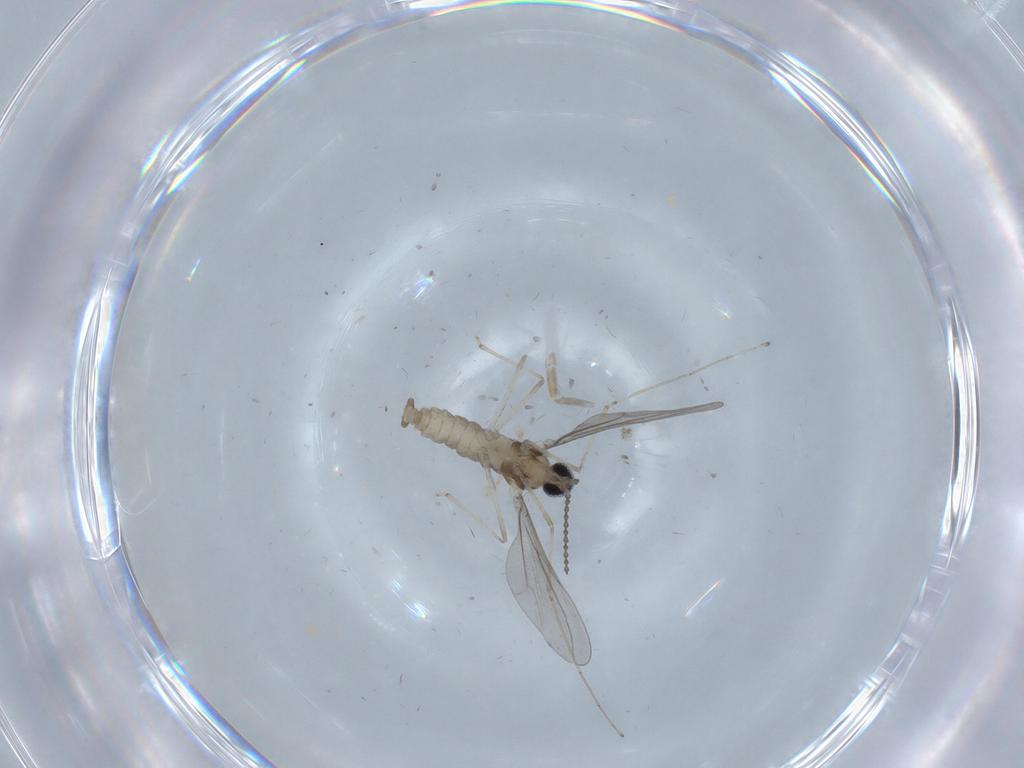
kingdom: Animalia
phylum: Arthropoda
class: Insecta
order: Diptera
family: Cecidomyiidae
